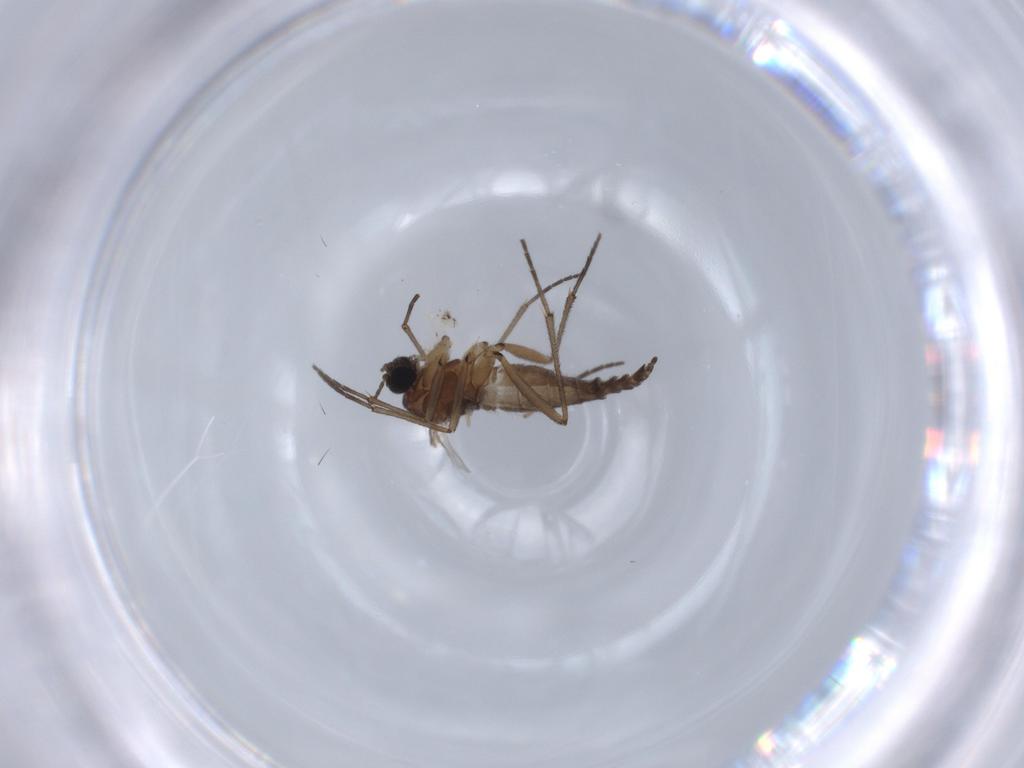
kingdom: Animalia
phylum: Arthropoda
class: Insecta
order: Diptera
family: Sciaridae
